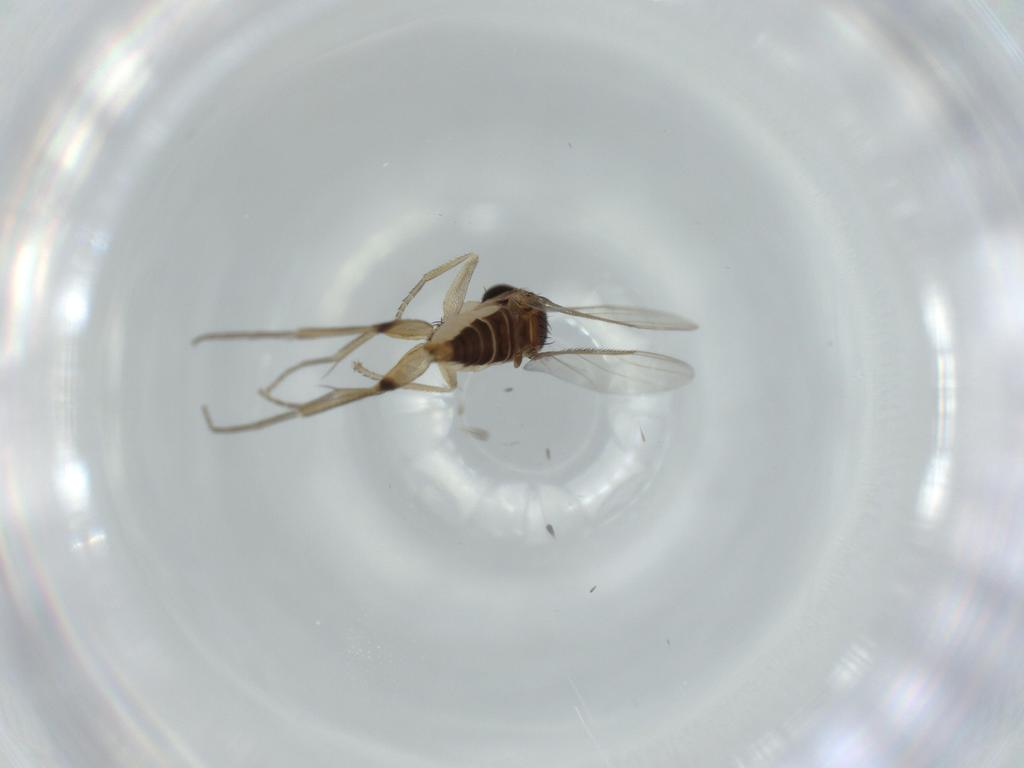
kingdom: Animalia
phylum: Arthropoda
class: Insecta
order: Diptera
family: Phoridae
